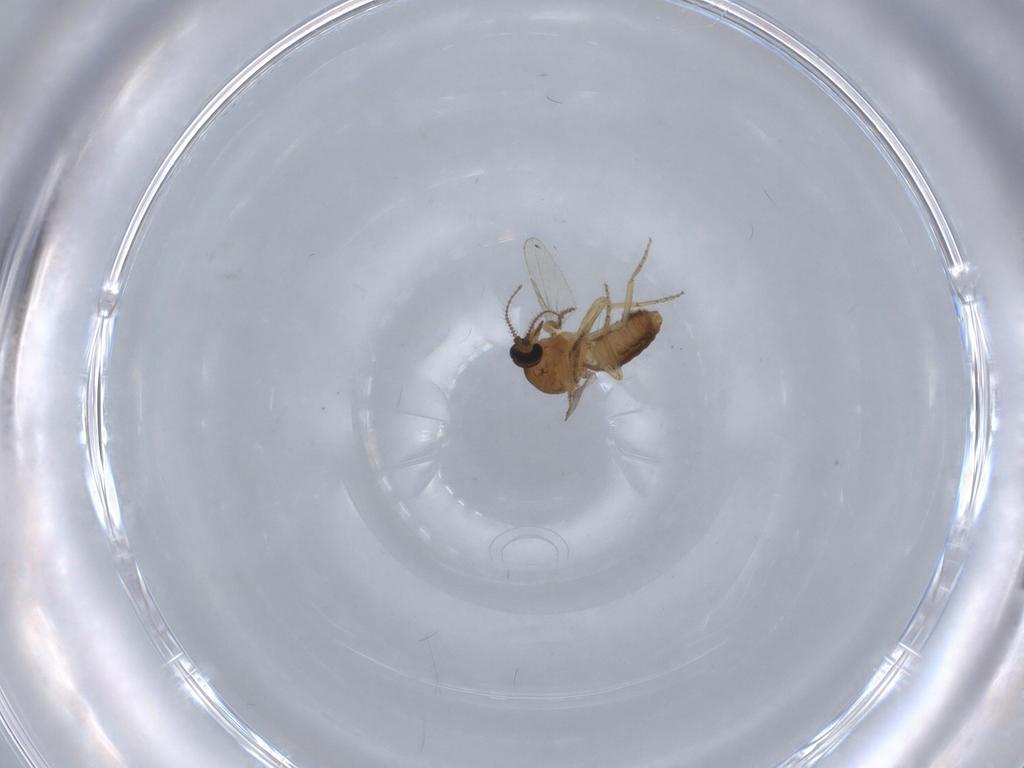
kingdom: Animalia
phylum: Arthropoda
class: Insecta
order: Diptera
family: Ceratopogonidae
